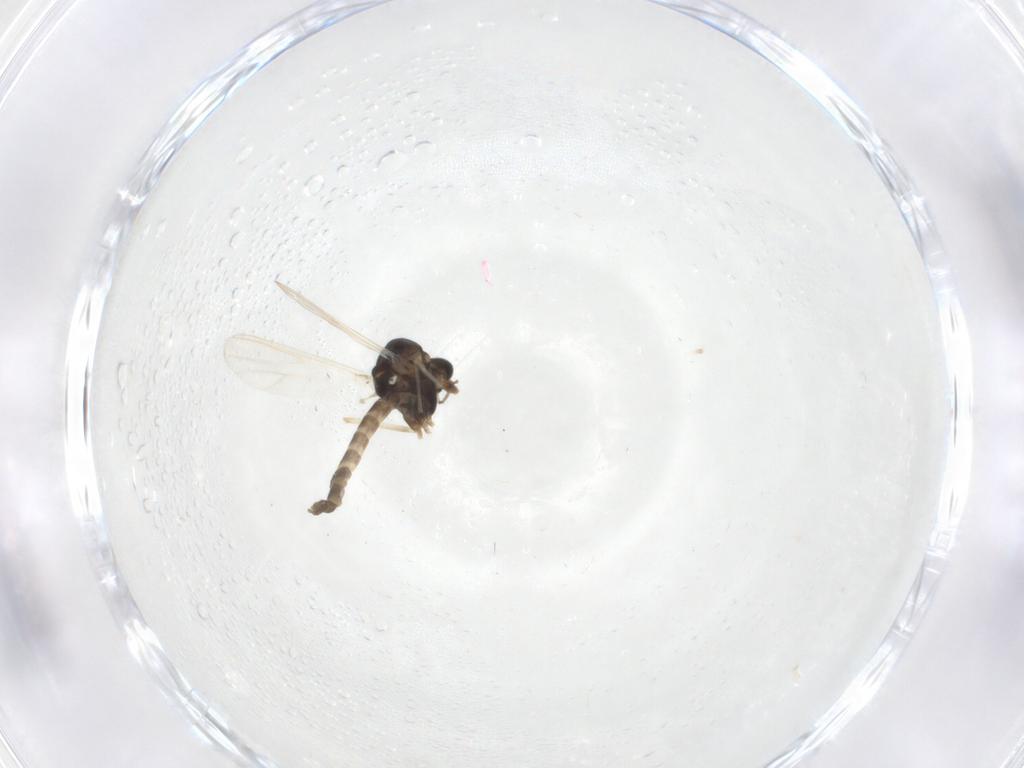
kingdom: Animalia
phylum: Arthropoda
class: Insecta
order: Diptera
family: Chironomidae
